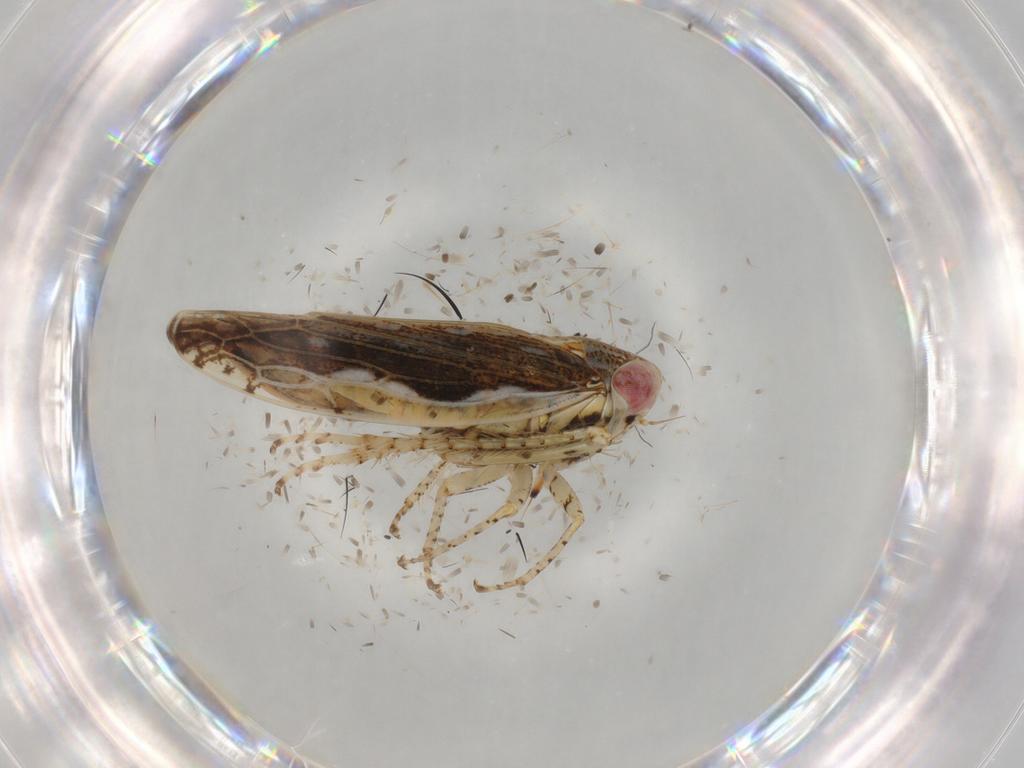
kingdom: Animalia
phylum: Arthropoda
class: Insecta
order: Hemiptera
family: Cicadellidae
